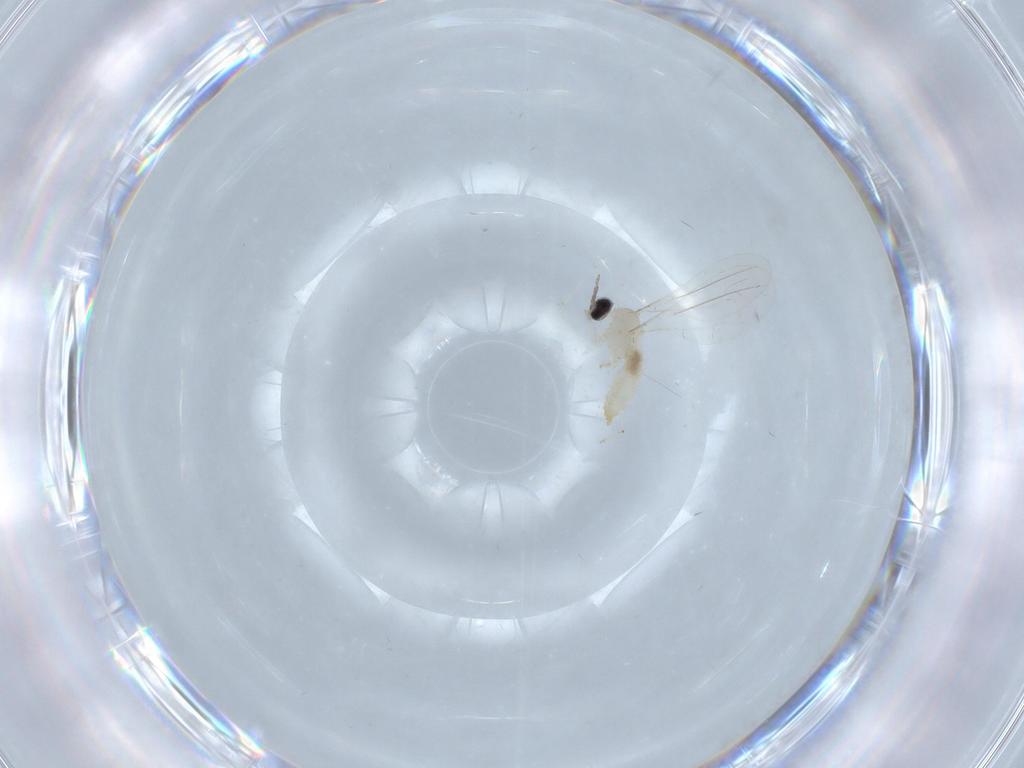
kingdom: Animalia
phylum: Arthropoda
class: Insecta
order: Diptera
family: Cecidomyiidae
